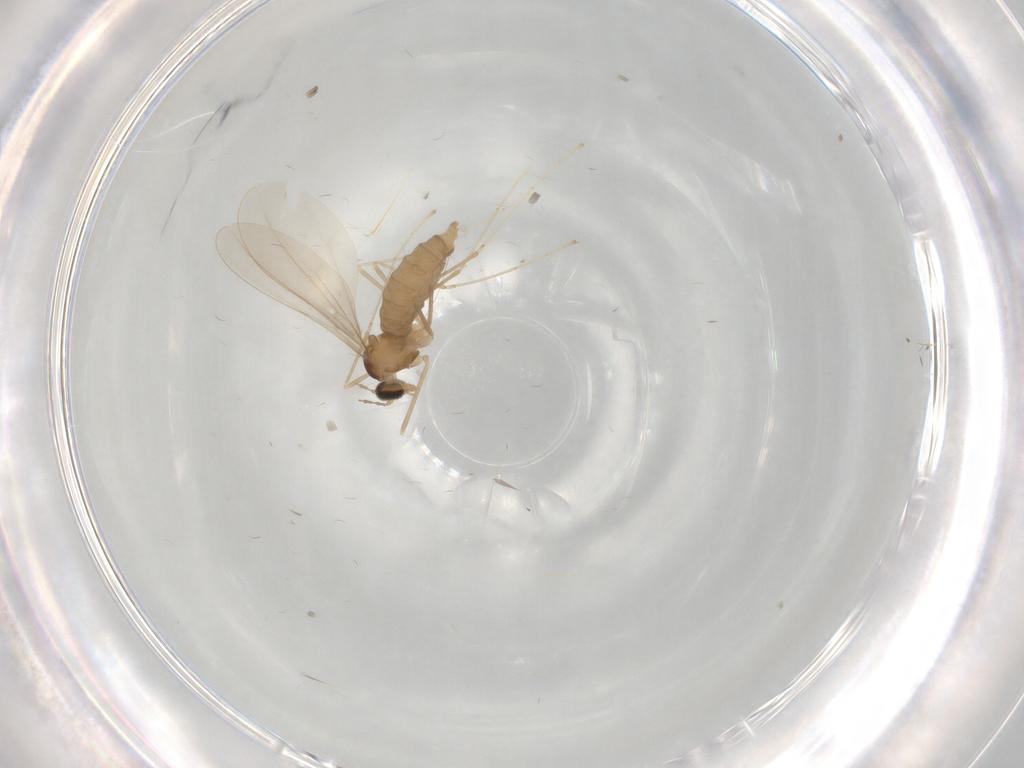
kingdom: Animalia
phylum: Arthropoda
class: Insecta
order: Diptera
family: Cecidomyiidae
